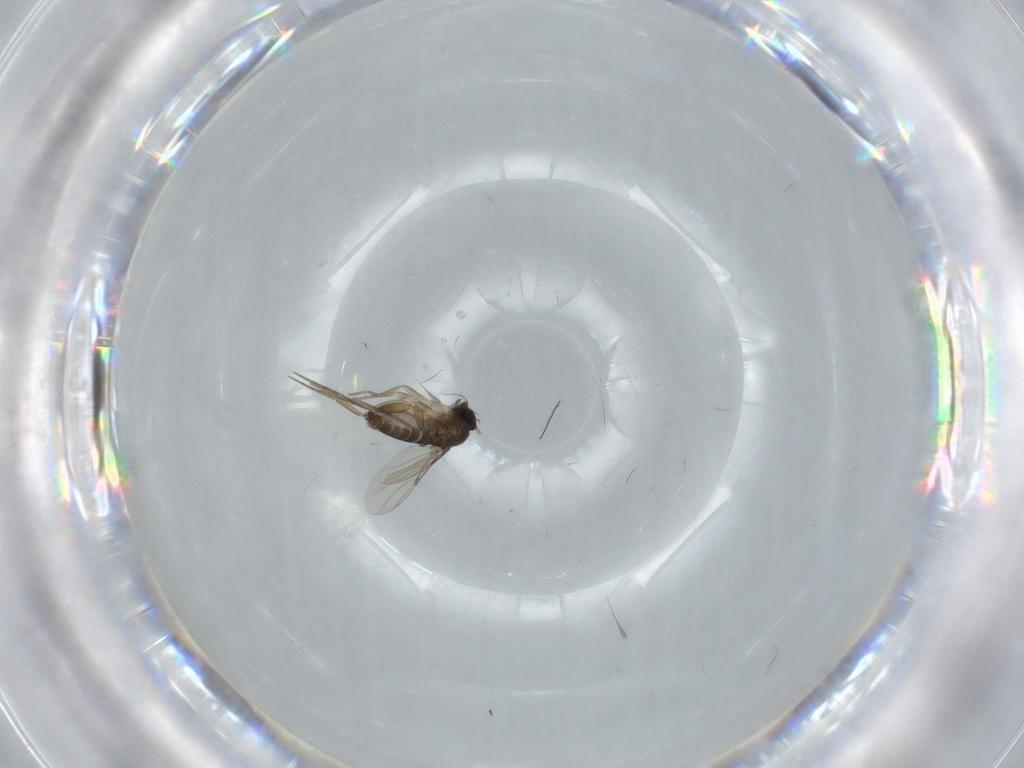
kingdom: Animalia
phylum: Arthropoda
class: Insecta
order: Diptera
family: Phoridae
